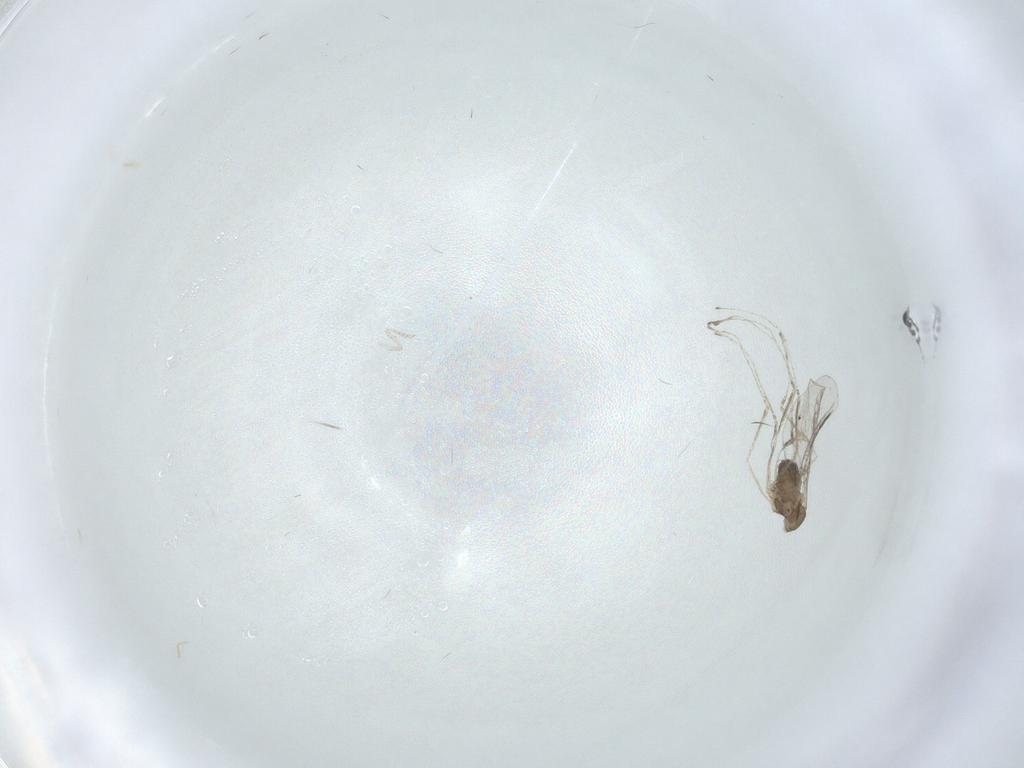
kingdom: Animalia
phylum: Arthropoda
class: Insecta
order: Diptera
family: Cecidomyiidae
